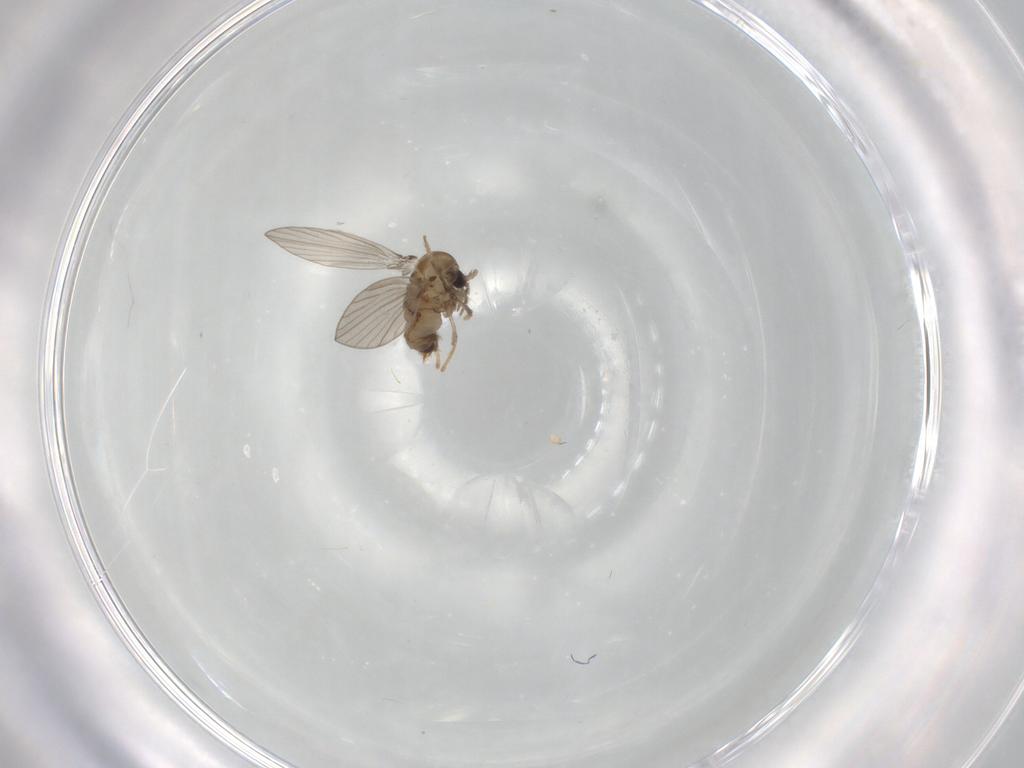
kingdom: Animalia
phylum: Arthropoda
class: Insecta
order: Diptera
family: Psychodidae
